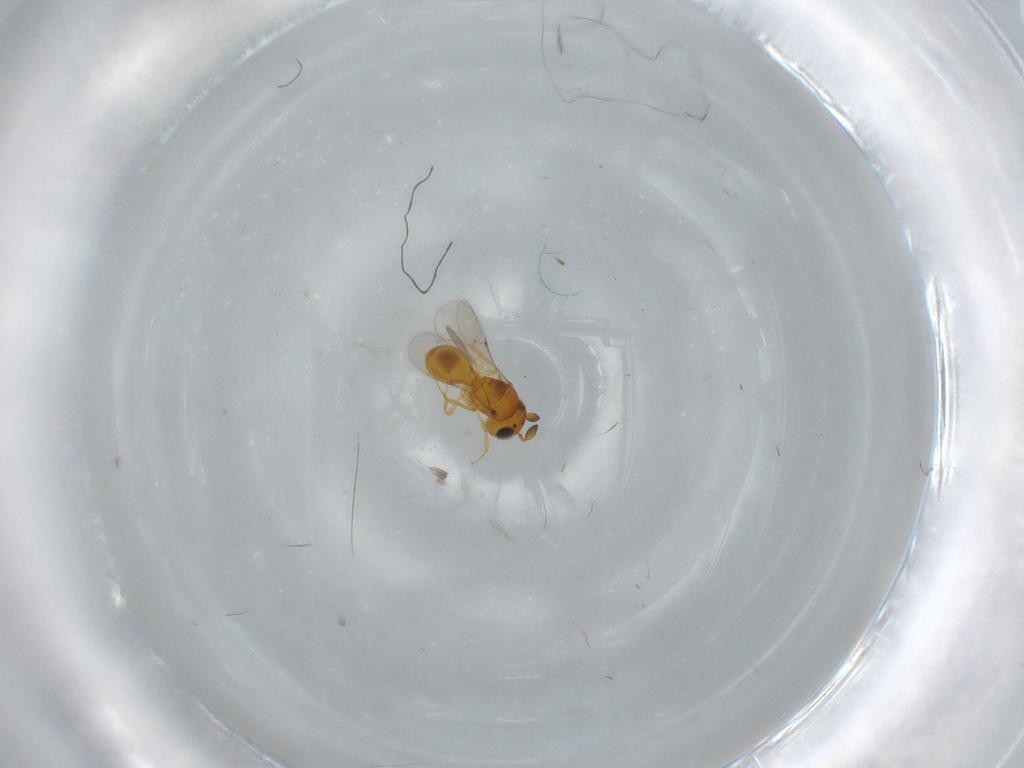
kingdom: Animalia
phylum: Arthropoda
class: Insecta
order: Hymenoptera
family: Scelionidae
